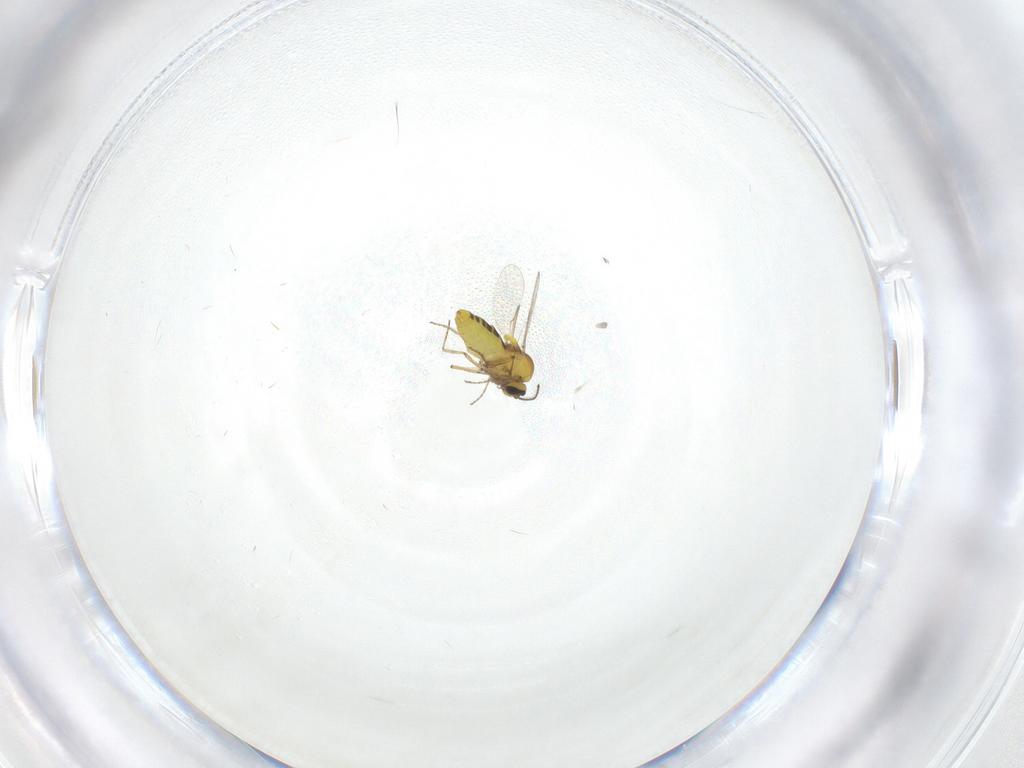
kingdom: Animalia
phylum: Arthropoda
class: Insecta
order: Diptera
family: Ceratopogonidae
